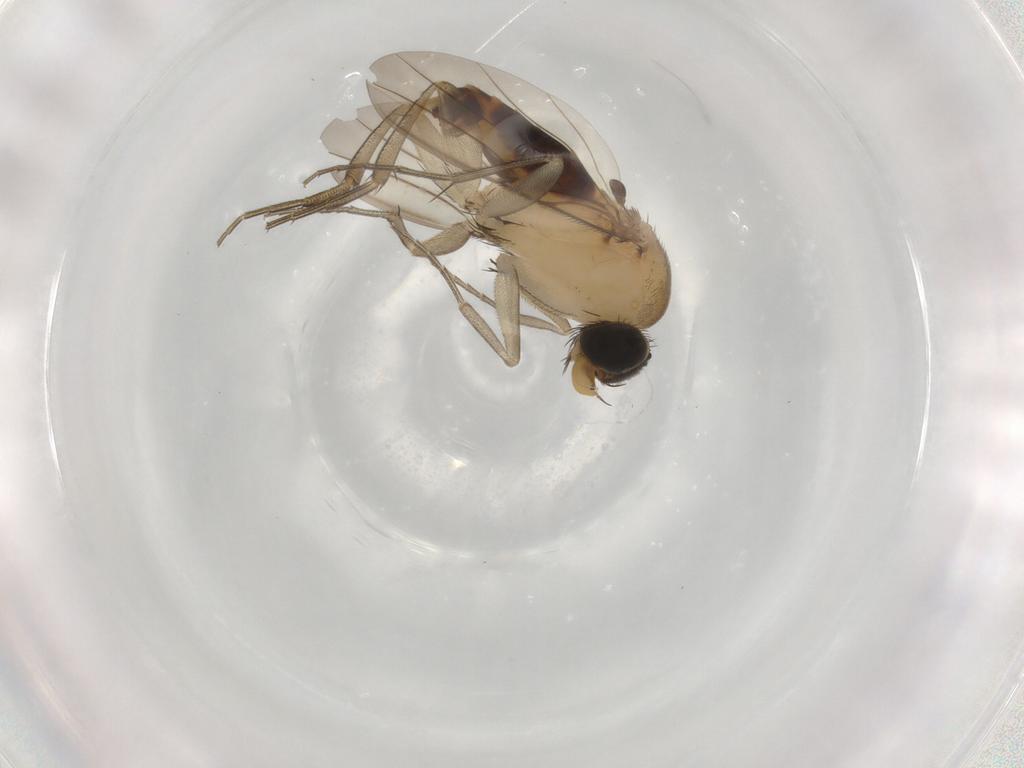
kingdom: Animalia
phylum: Arthropoda
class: Insecta
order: Diptera
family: Phoridae
